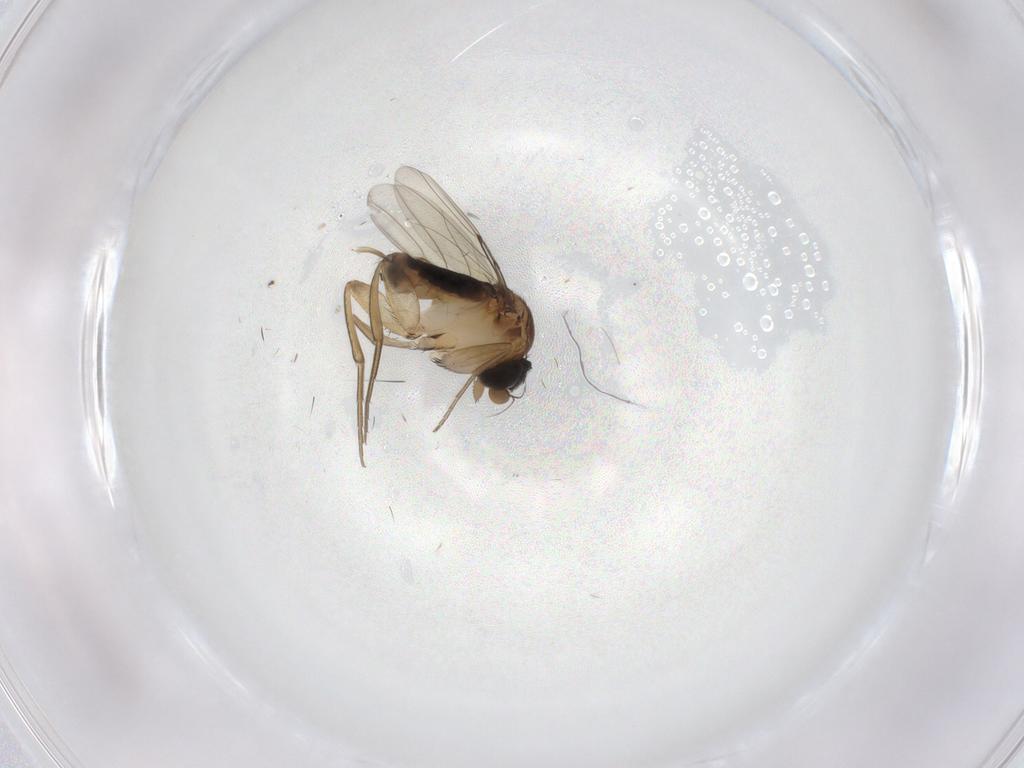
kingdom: Animalia
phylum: Arthropoda
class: Insecta
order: Diptera
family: Phoridae
